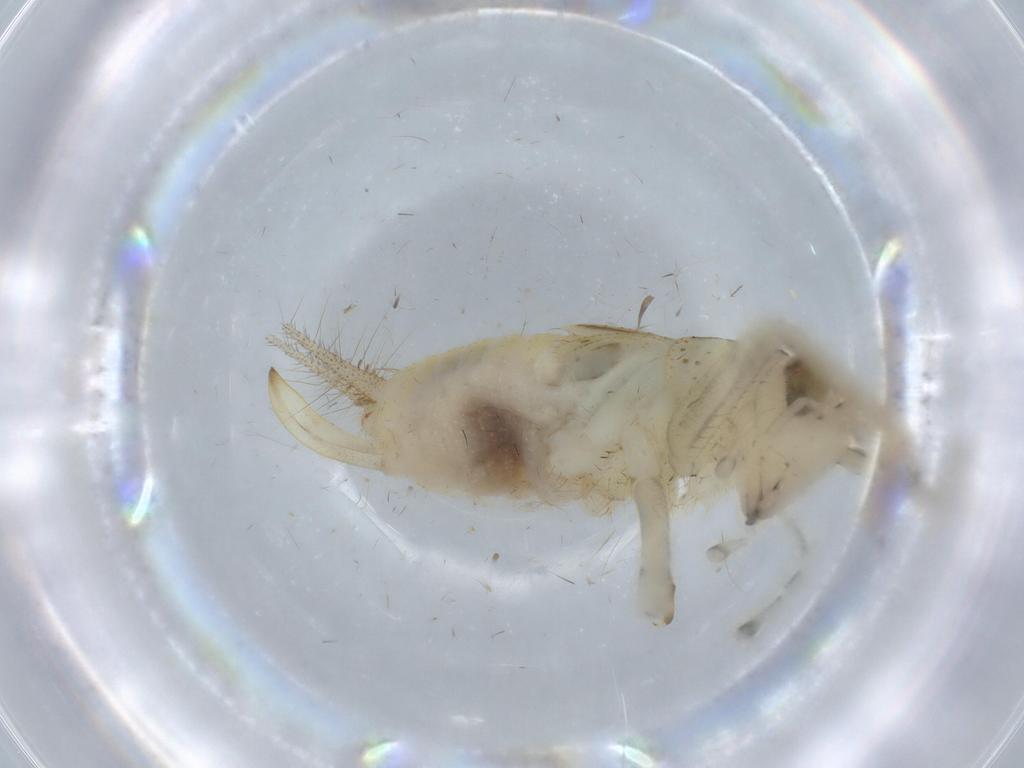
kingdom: Animalia
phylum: Arthropoda
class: Insecta
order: Orthoptera
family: Trigonidiidae
